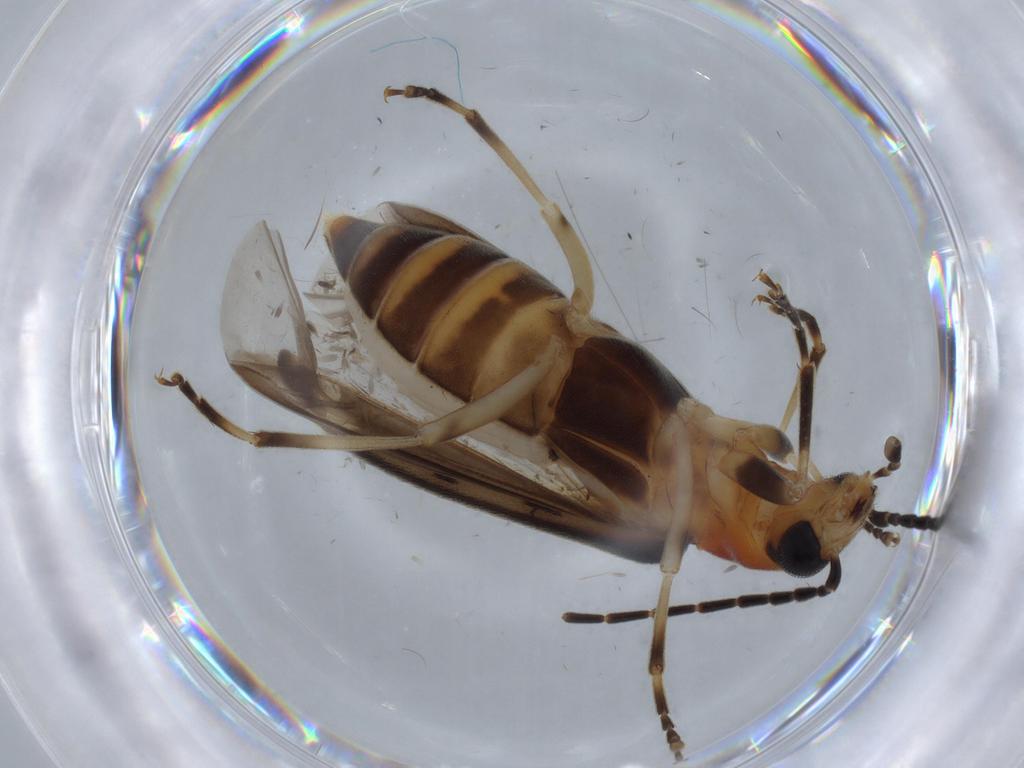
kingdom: Animalia
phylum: Arthropoda
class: Insecta
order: Coleoptera
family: Oedemeridae
